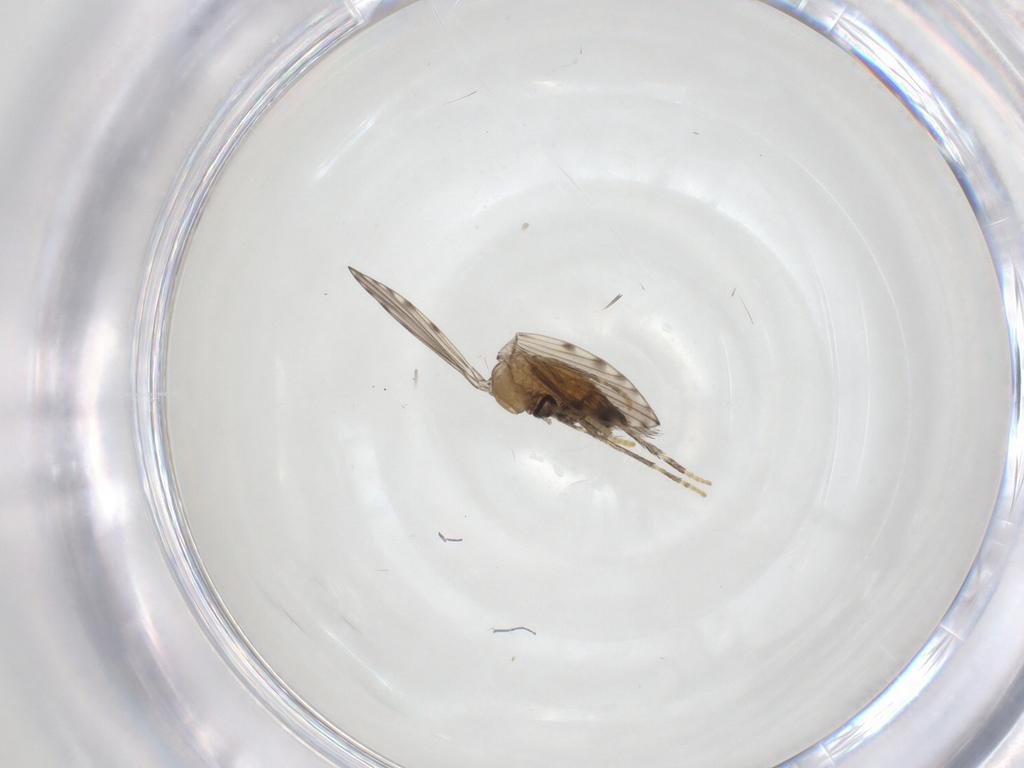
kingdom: Animalia
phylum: Arthropoda
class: Insecta
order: Diptera
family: Psychodidae
